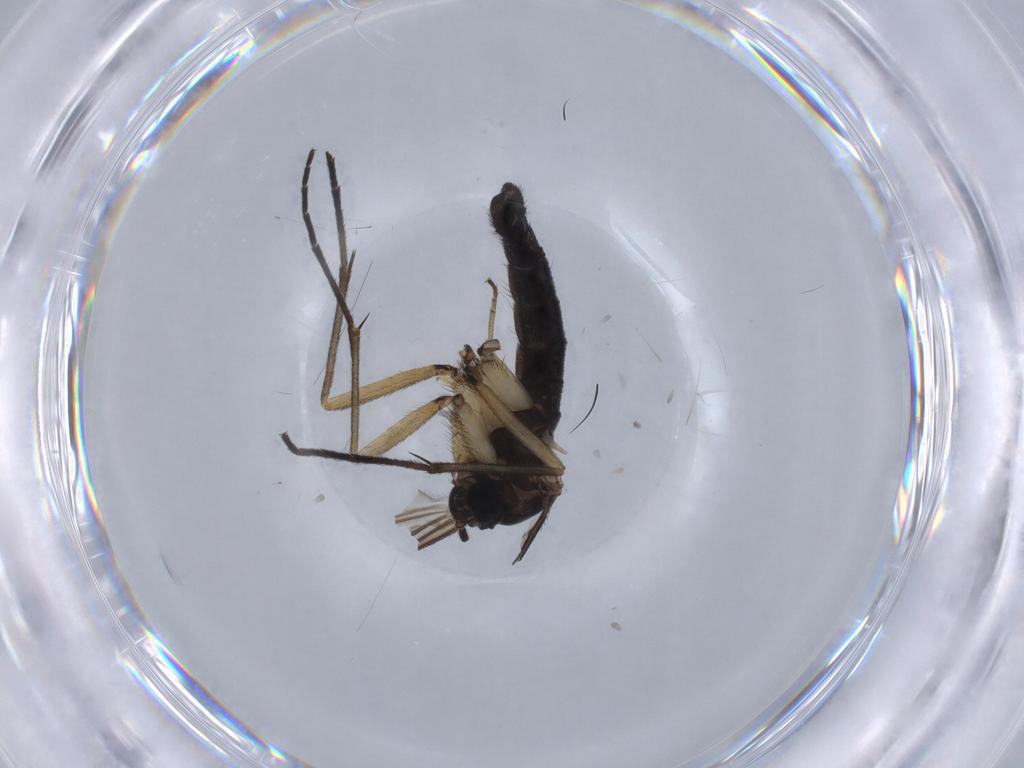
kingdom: Animalia
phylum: Arthropoda
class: Insecta
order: Diptera
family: Sciaridae
